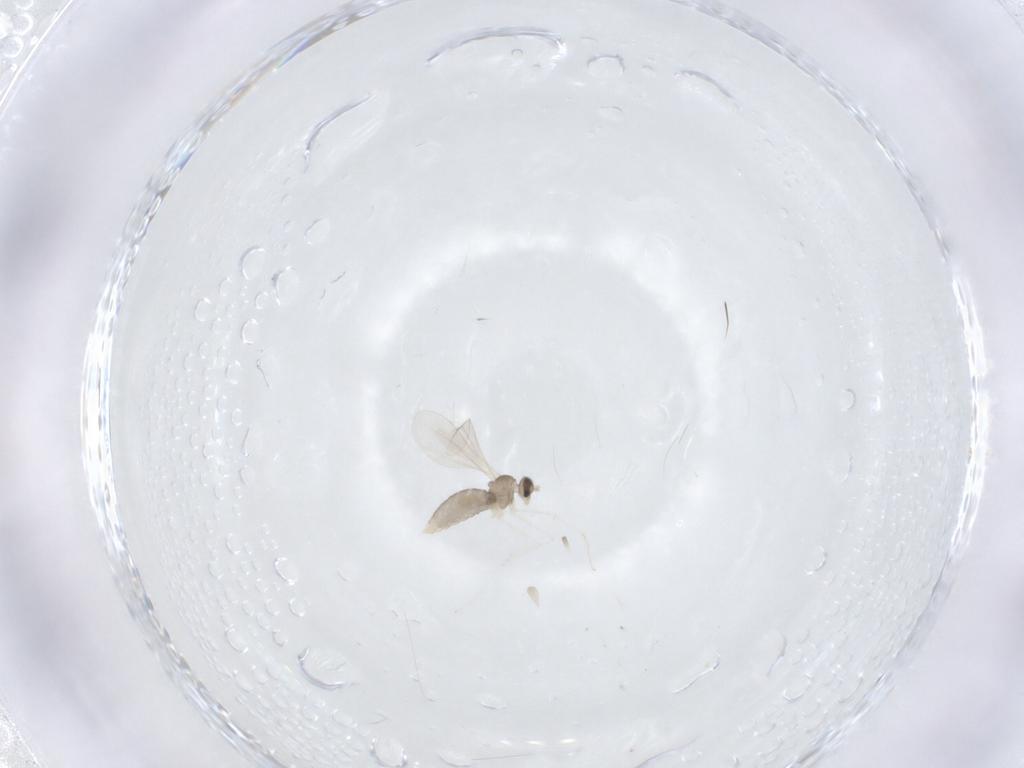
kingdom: Animalia
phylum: Arthropoda
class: Insecta
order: Diptera
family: Cecidomyiidae
